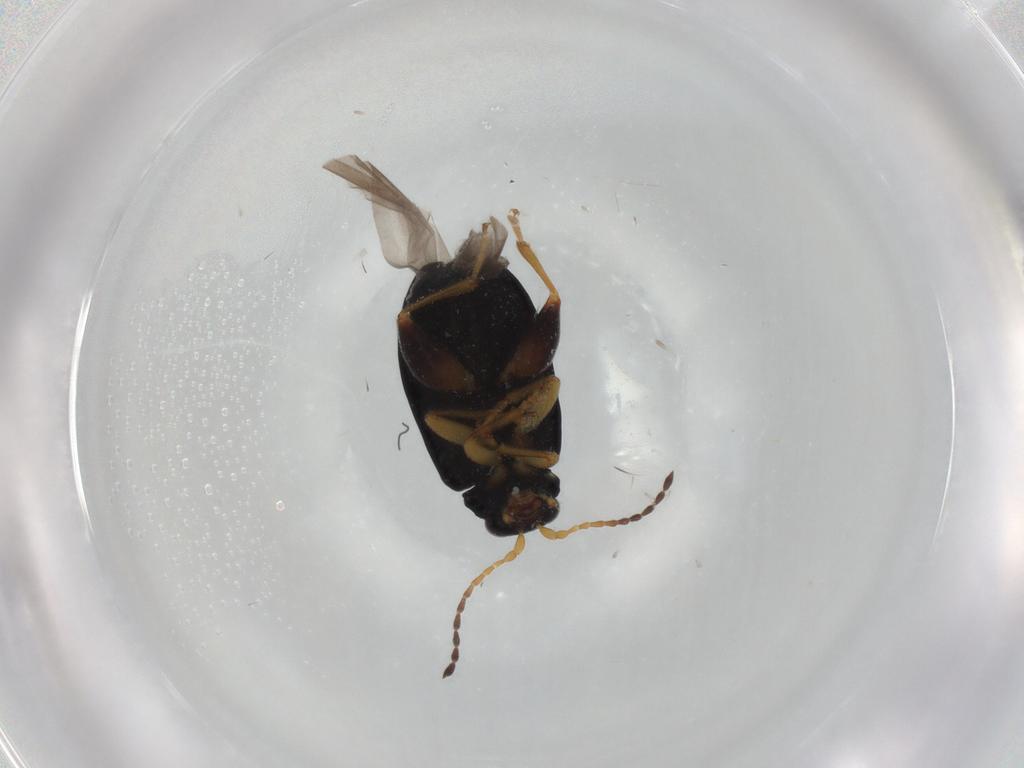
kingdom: Animalia
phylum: Arthropoda
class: Insecta
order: Coleoptera
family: Chrysomelidae
